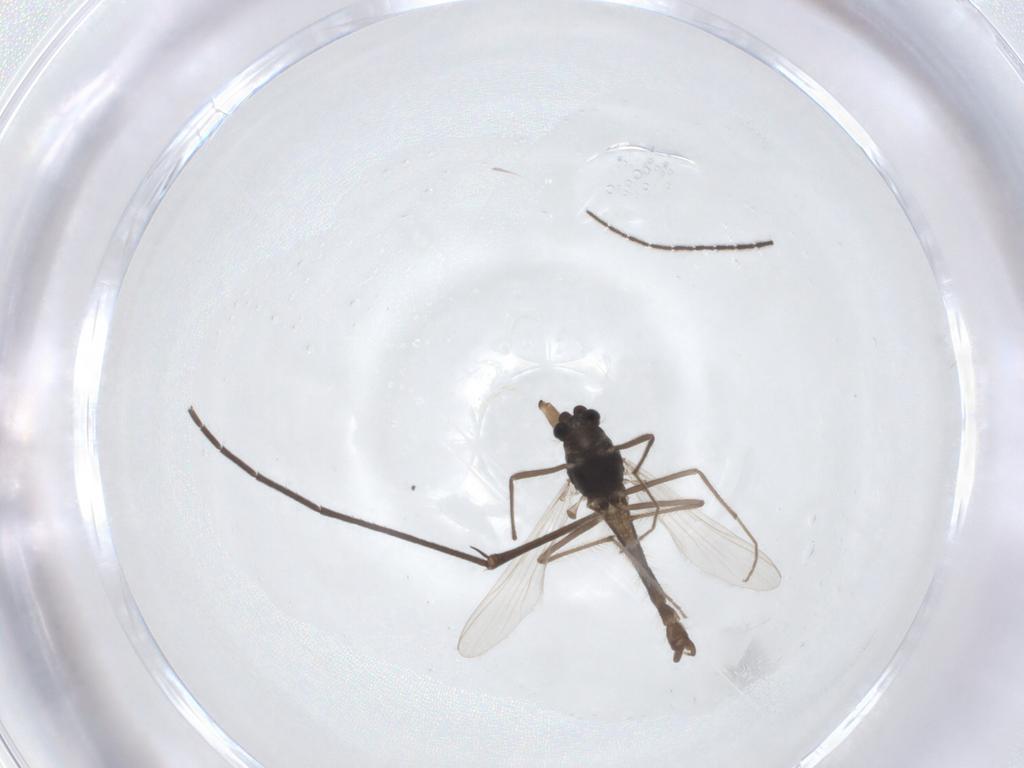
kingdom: Animalia
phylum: Arthropoda
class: Insecta
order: Diptera
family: Chironomidae
